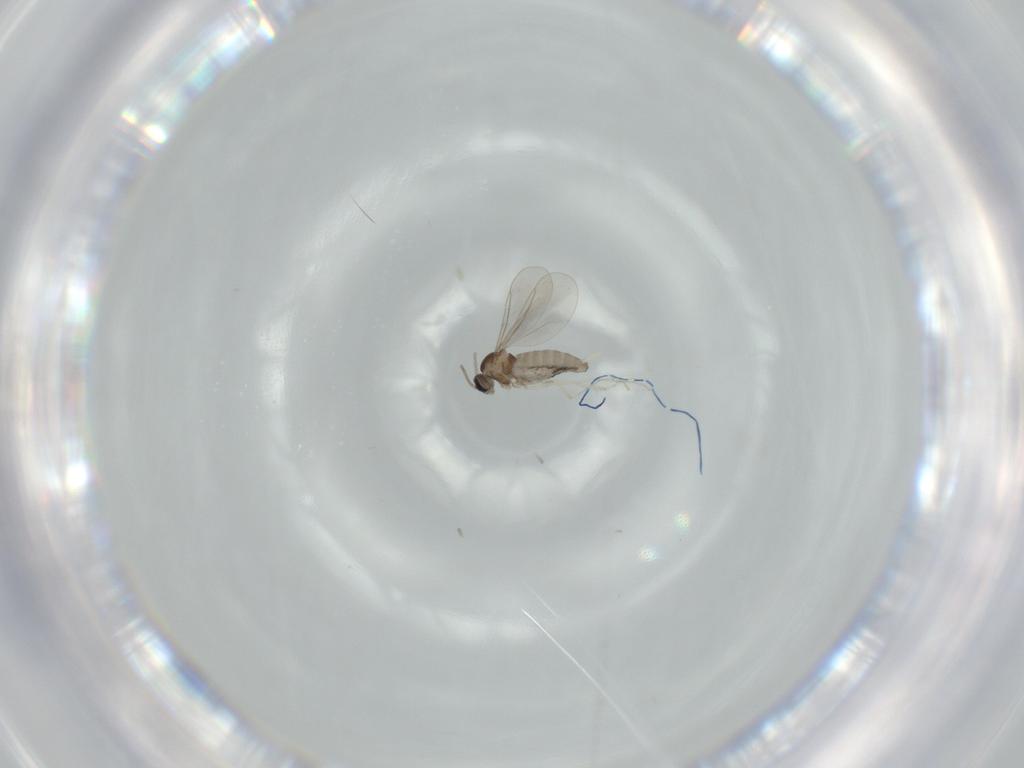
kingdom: Animalia
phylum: Arthropoda
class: Insecta
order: Diptera
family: Cecidomyiidae
